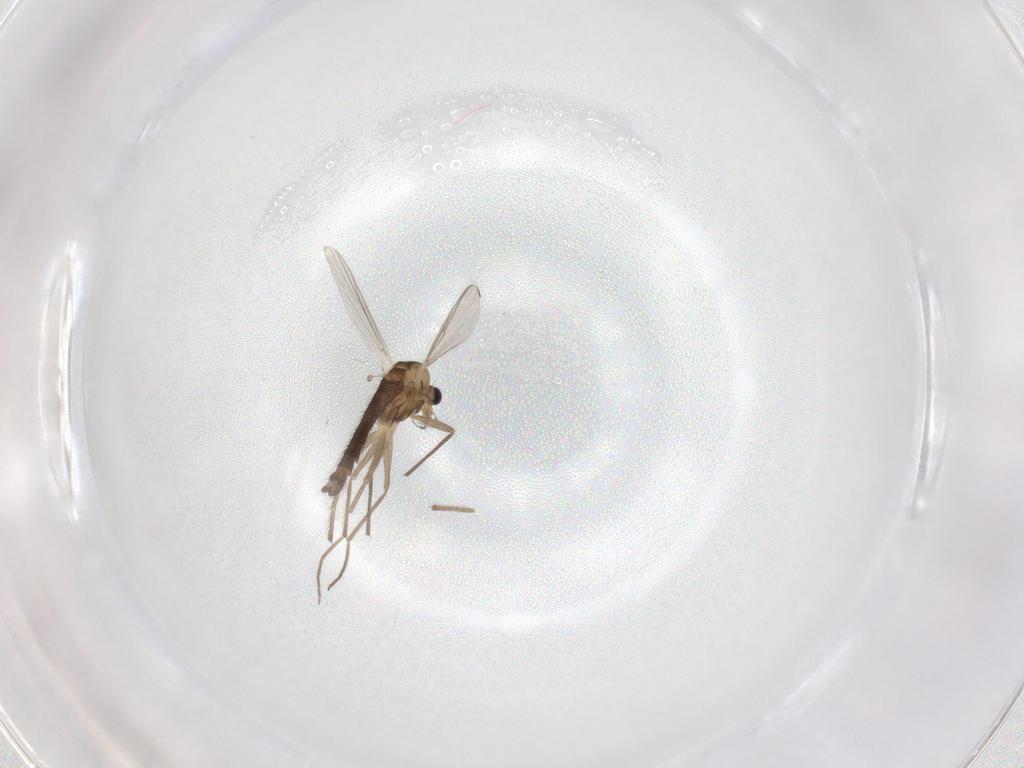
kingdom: Animalia
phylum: Arthropoda
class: Insecta
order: Diptera
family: Chironomidae
